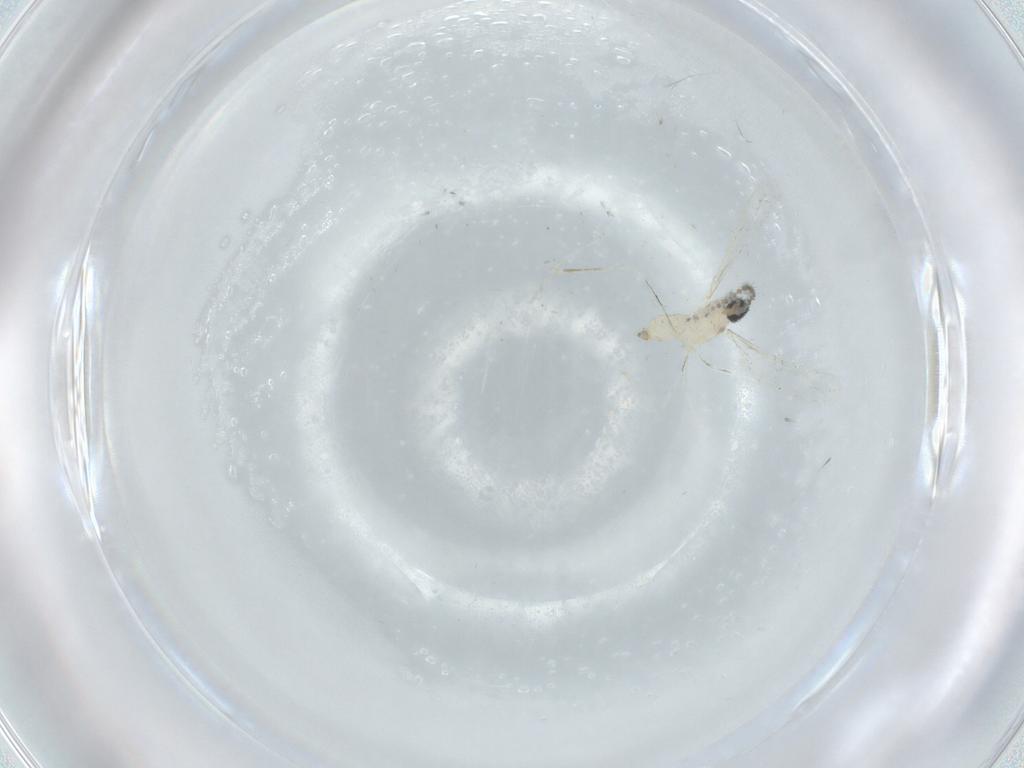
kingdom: Animalia
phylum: Arthropoda
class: Insecta
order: Diptera
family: Cecidomyiidae
